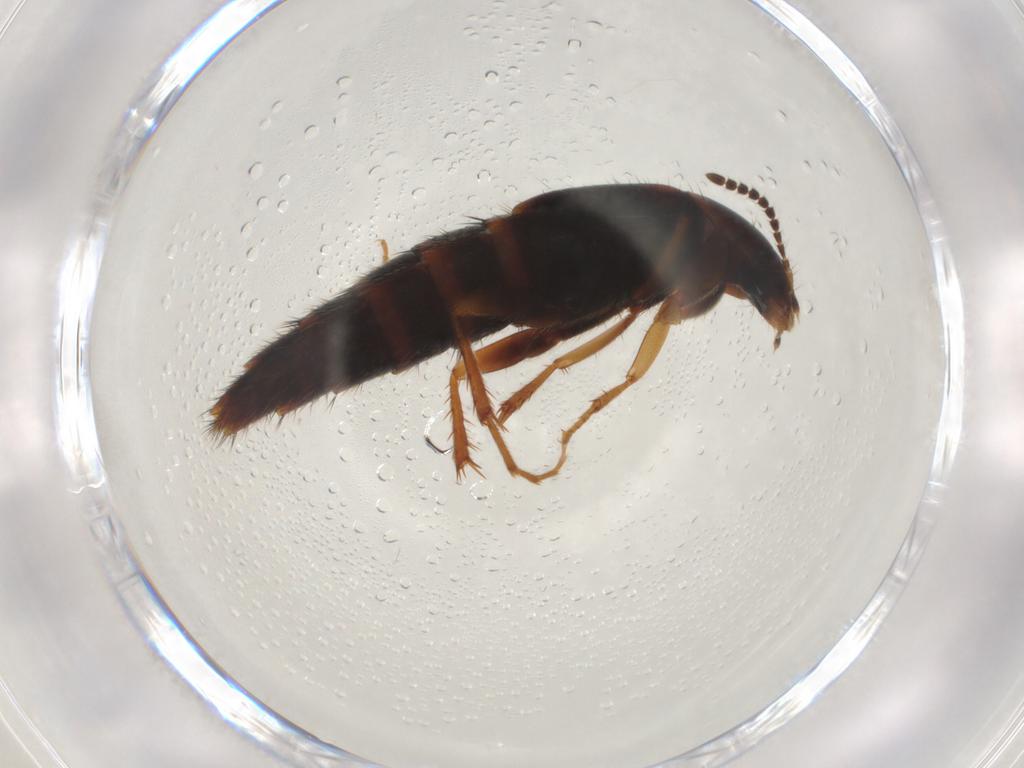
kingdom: Animalia
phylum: Arthropoda
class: Insecta
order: Coleoptera
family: Staphylinidae
